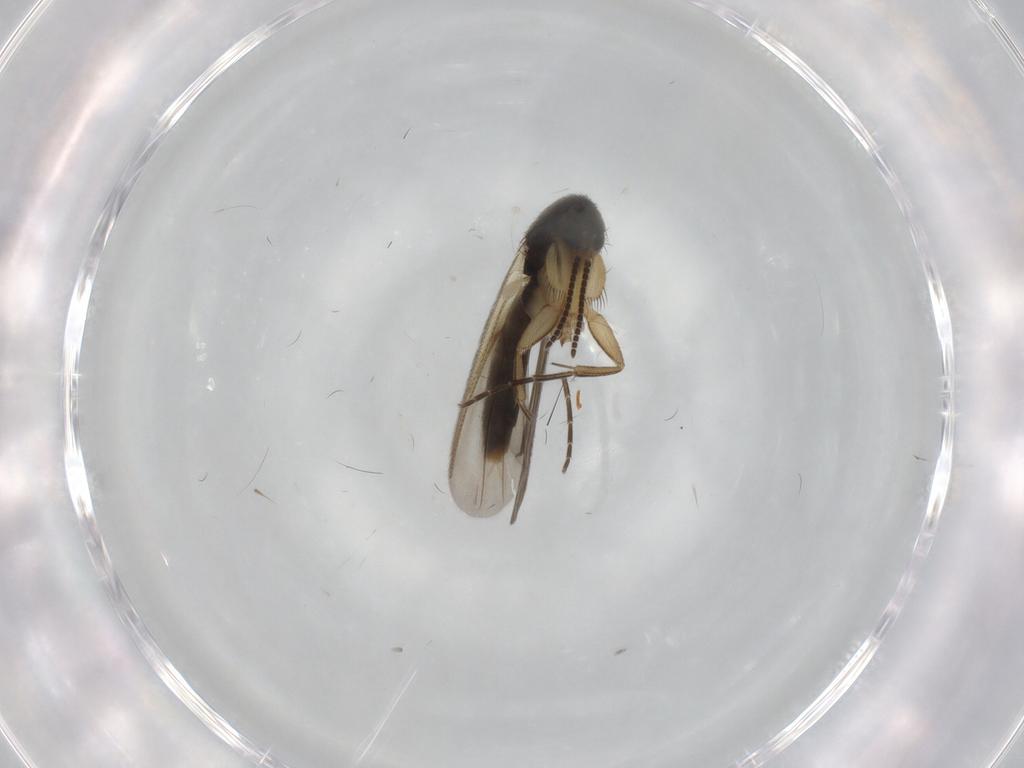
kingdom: Animalia
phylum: Arthropoda
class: Insecta
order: Diptera
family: Mycetophilidae
